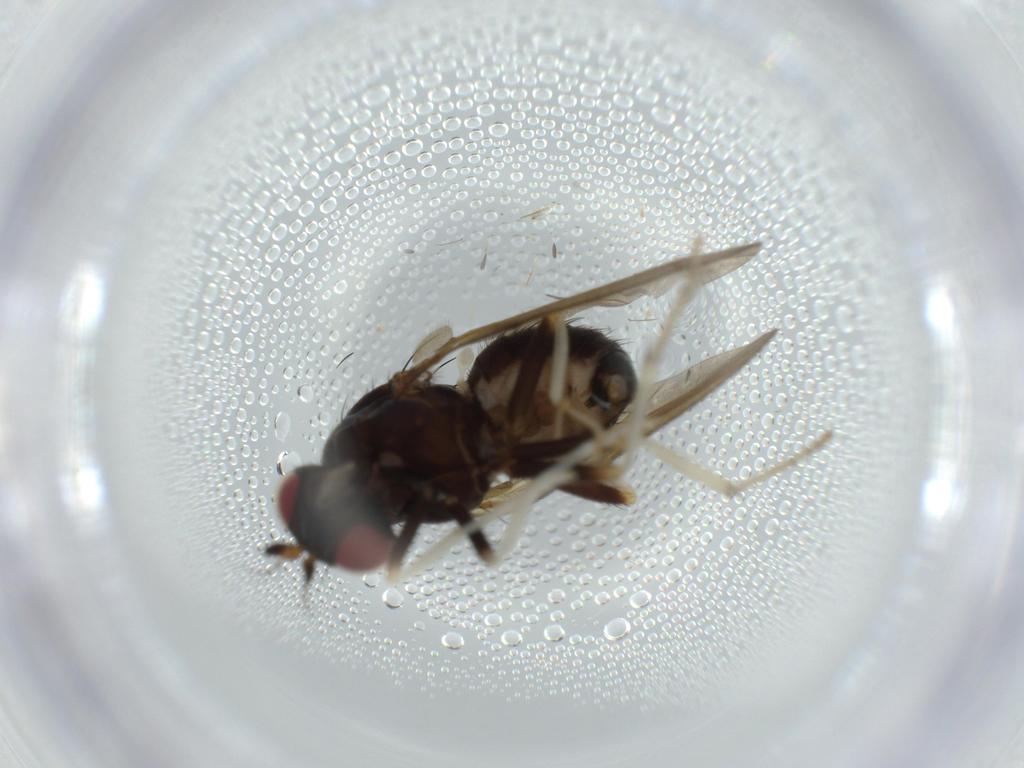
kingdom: Animalia
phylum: Arthropoda
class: Insecta
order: Diptera
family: Lauxaniidae
